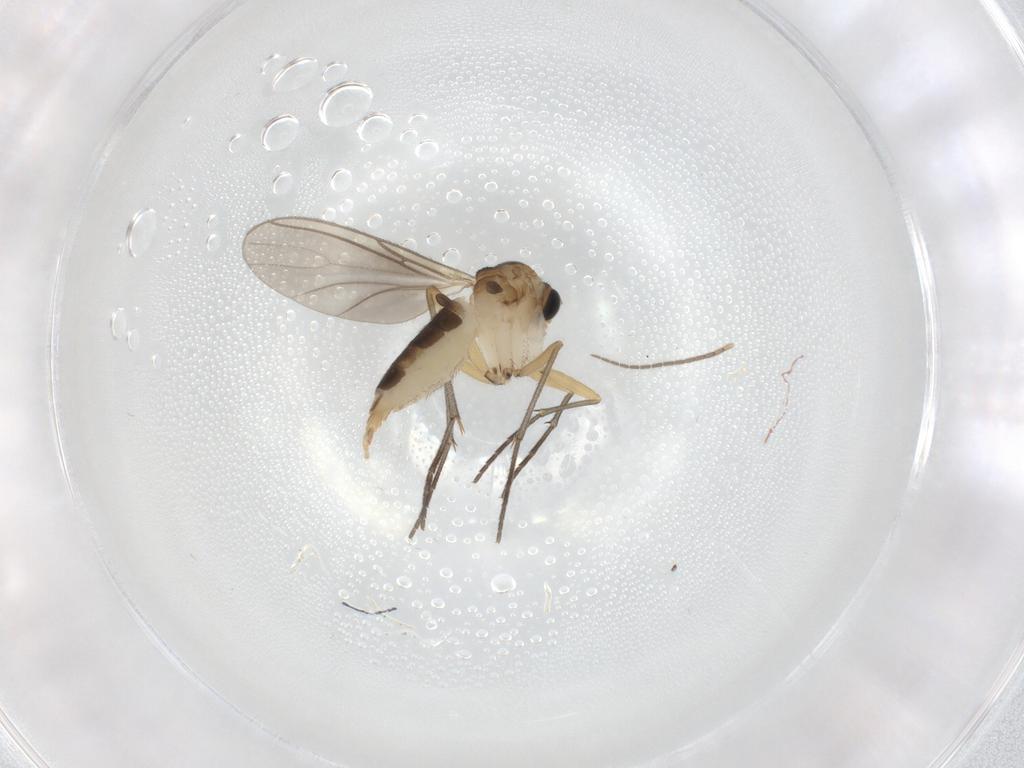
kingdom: Animalia
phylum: Arthropoda
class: Insecta
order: Diptera
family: Sciaridae
